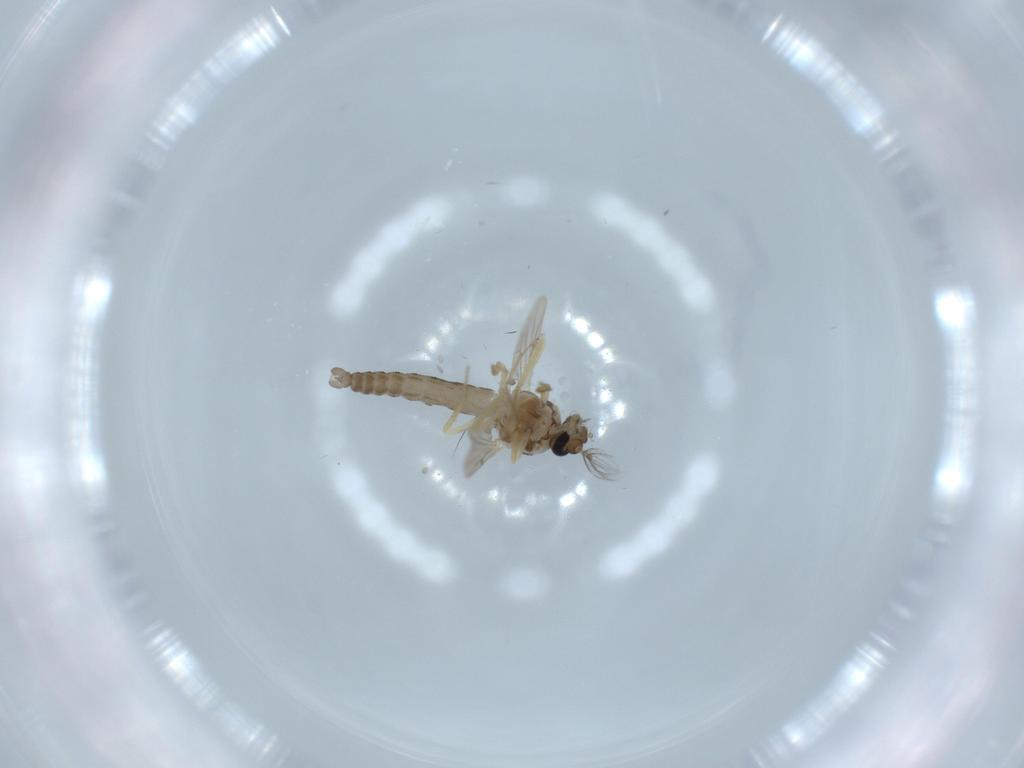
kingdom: Animalia
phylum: Arthropoda
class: Insecta
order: Diptera
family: Ceratopogonidae
